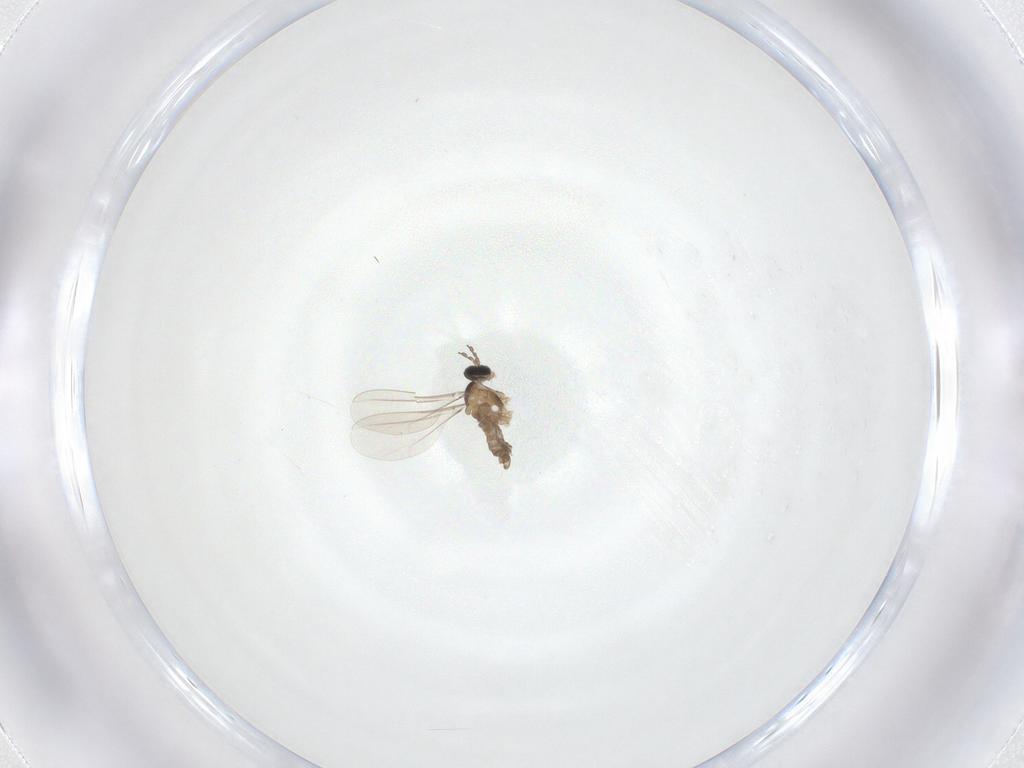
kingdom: Animalia
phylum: Arthropoda
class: Insecta
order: Diptera
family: Cecidomyiidae
